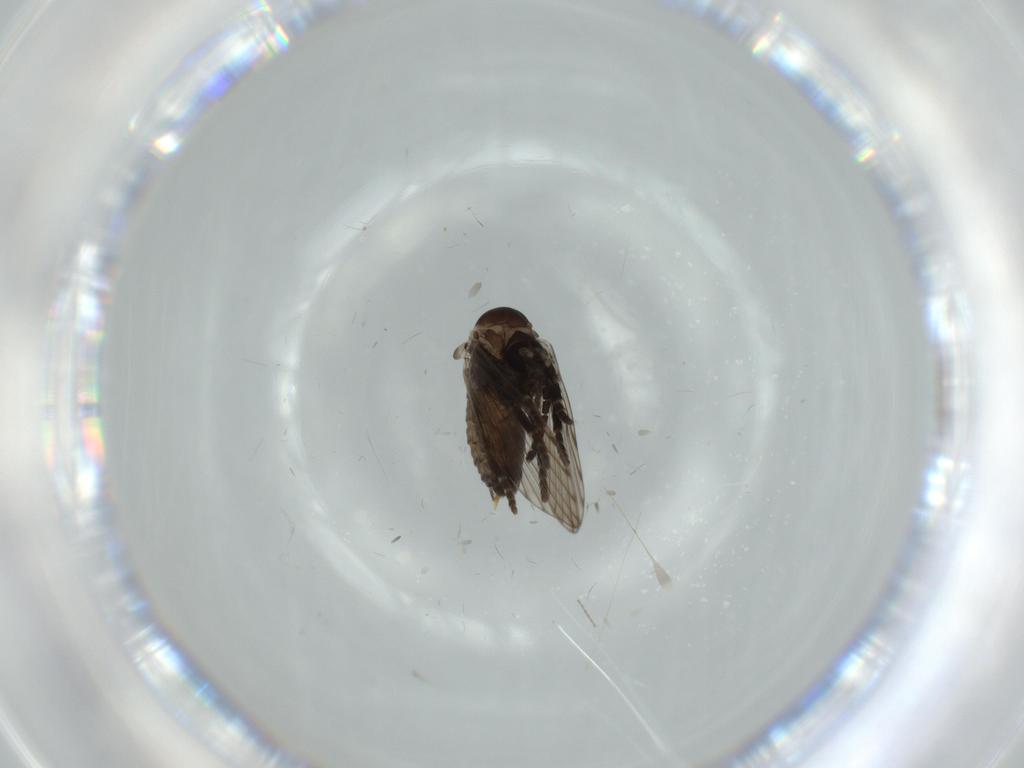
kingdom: Animalia
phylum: Arthropoda
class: Insecta
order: Diptera
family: Psychodidae
